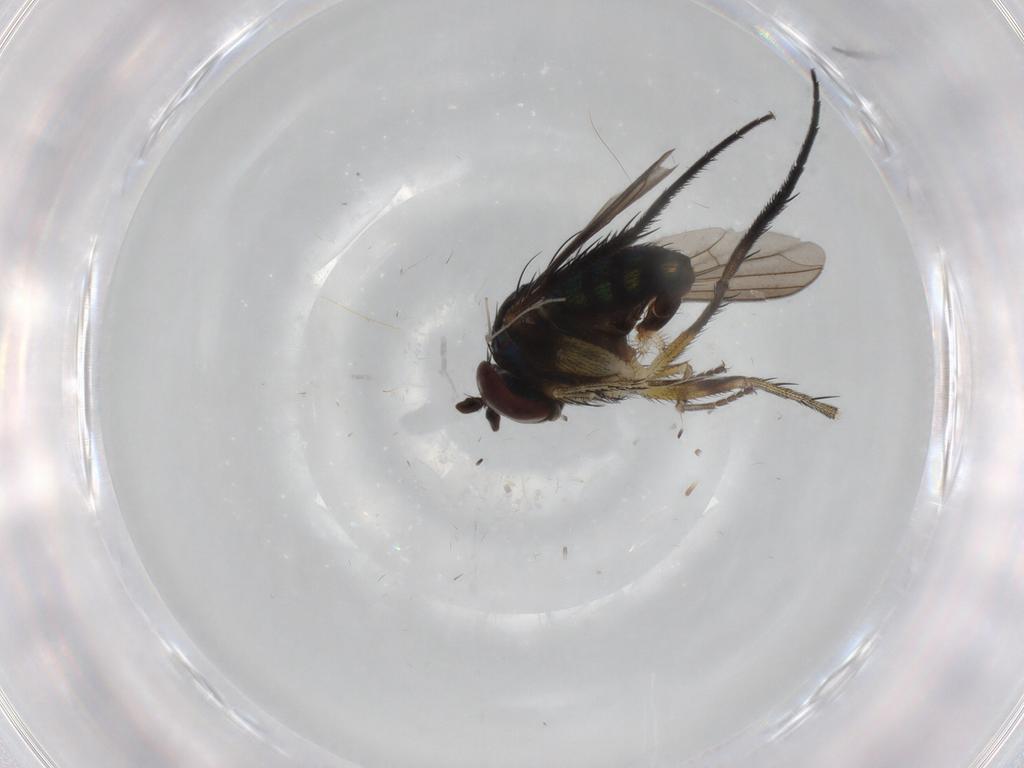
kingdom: Animalia
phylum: Arthropoda
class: Insecta
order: Diptera
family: Dolichopodidae
